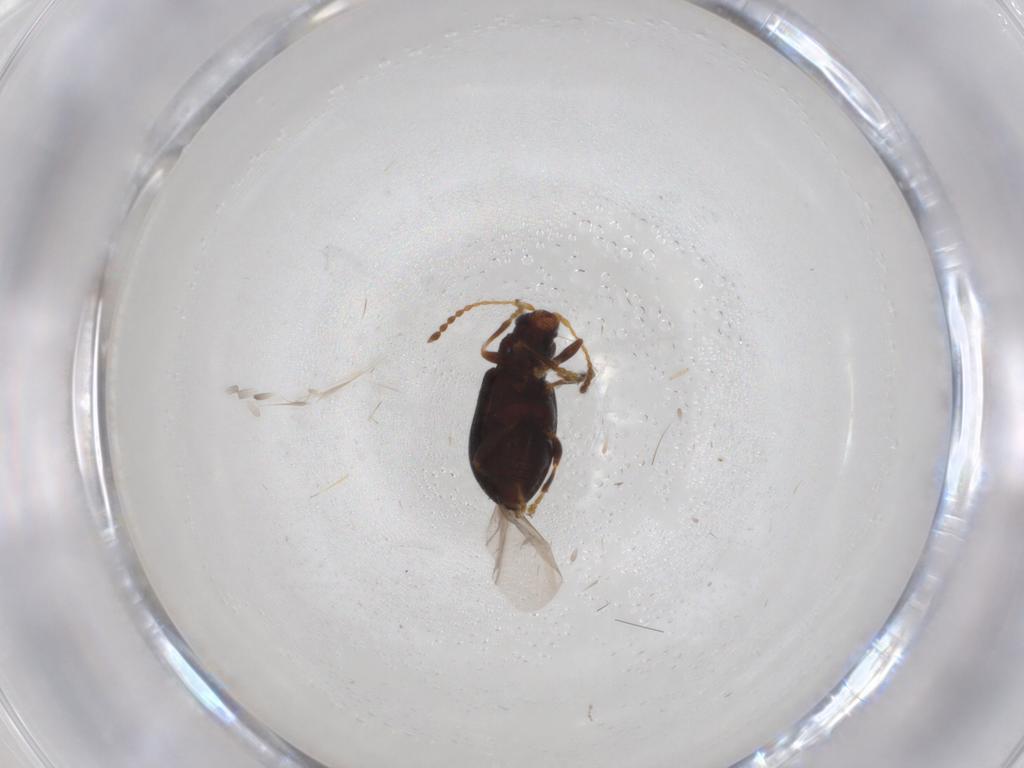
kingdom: Animalia
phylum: Arthropoda
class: Insecta
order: Coleoptera
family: Chrysomelidae
